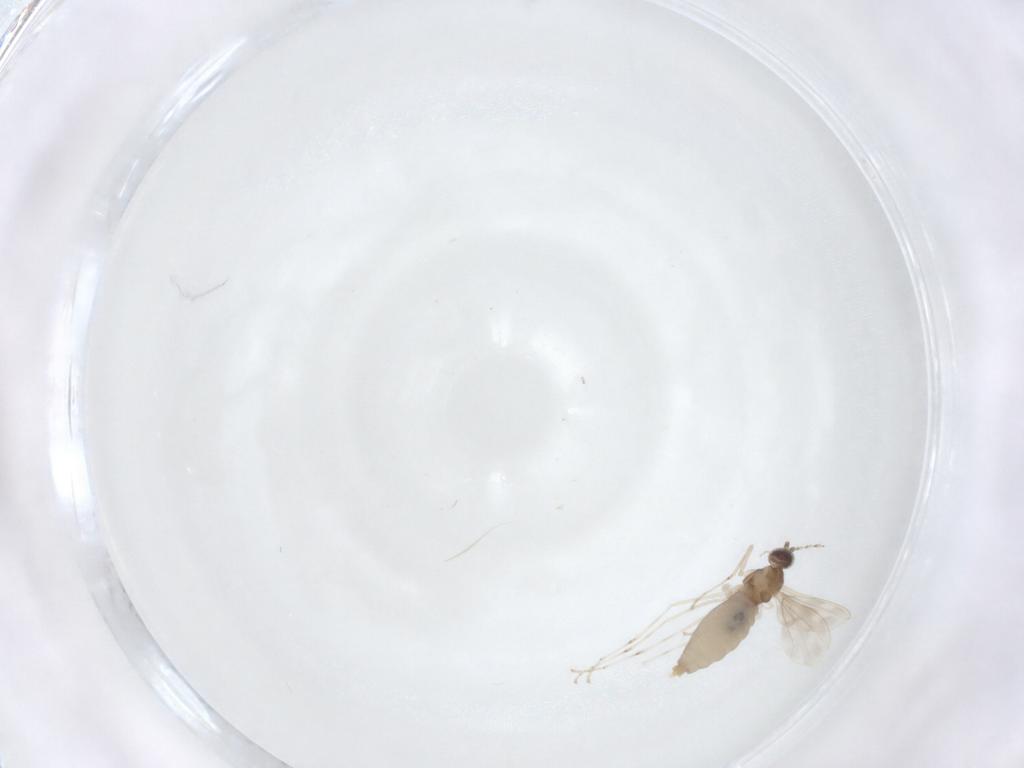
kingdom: Animalia
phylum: Arthropoda
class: Insecta
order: Diptera
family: Cecidomyiidae
